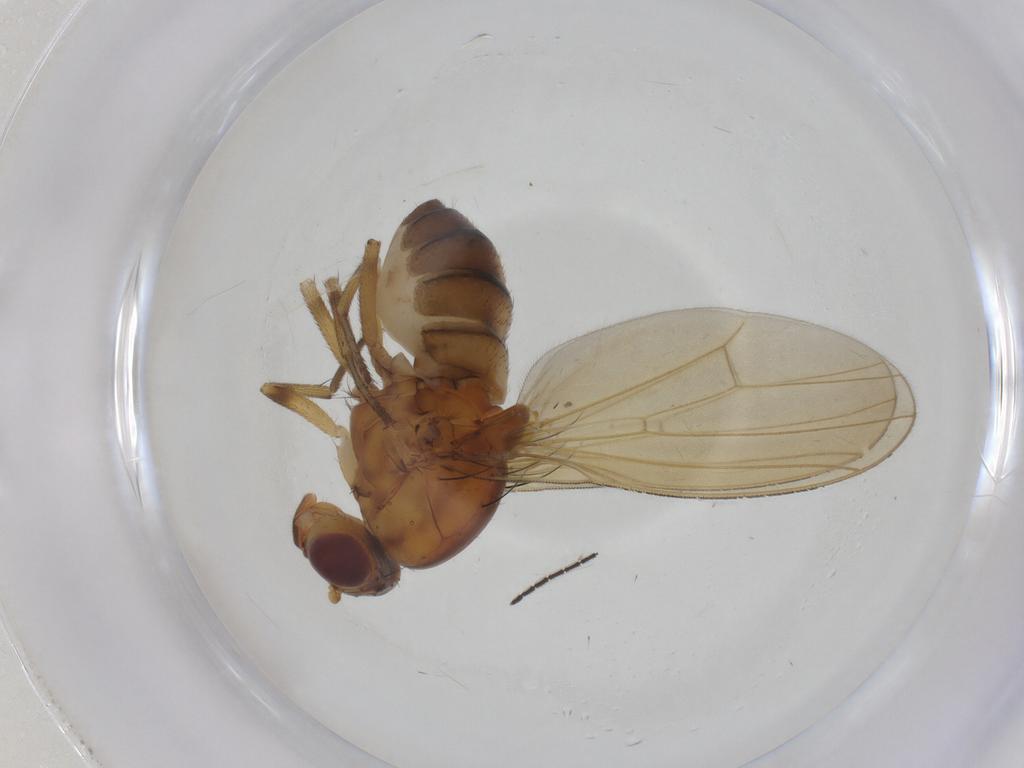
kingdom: Animalia
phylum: Arthropoda
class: Insecta
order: Diptera
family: Sciaridae
